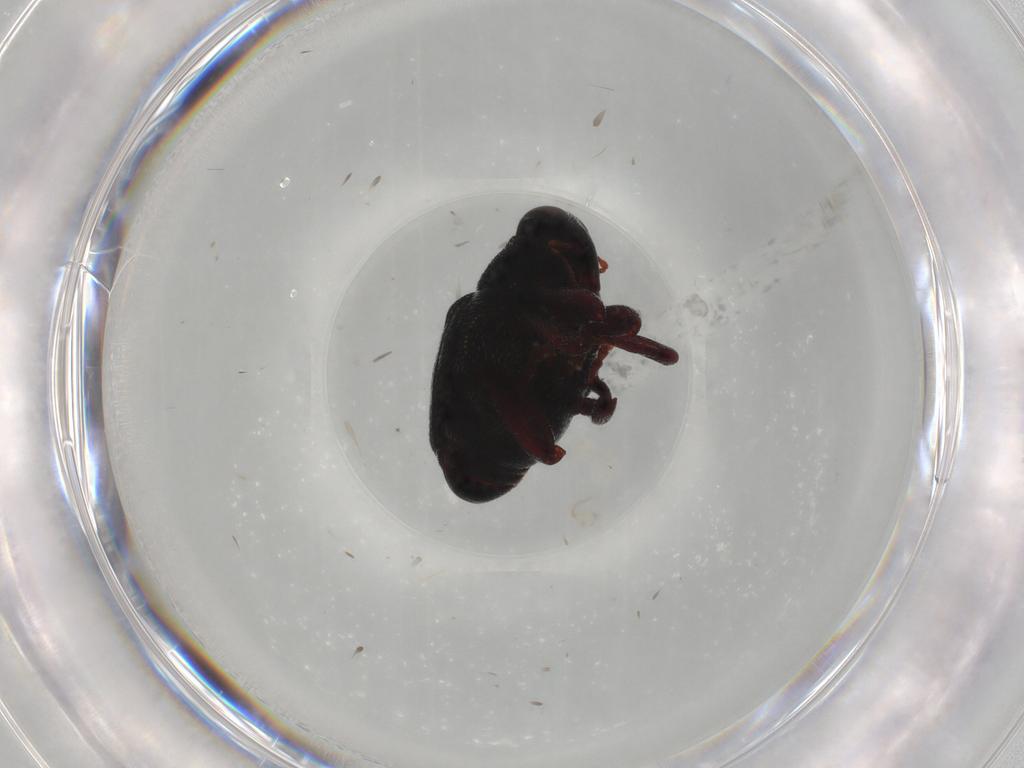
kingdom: Animalia
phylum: Arthropoda
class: Insecta
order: Coleoptera
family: Curculionidae
